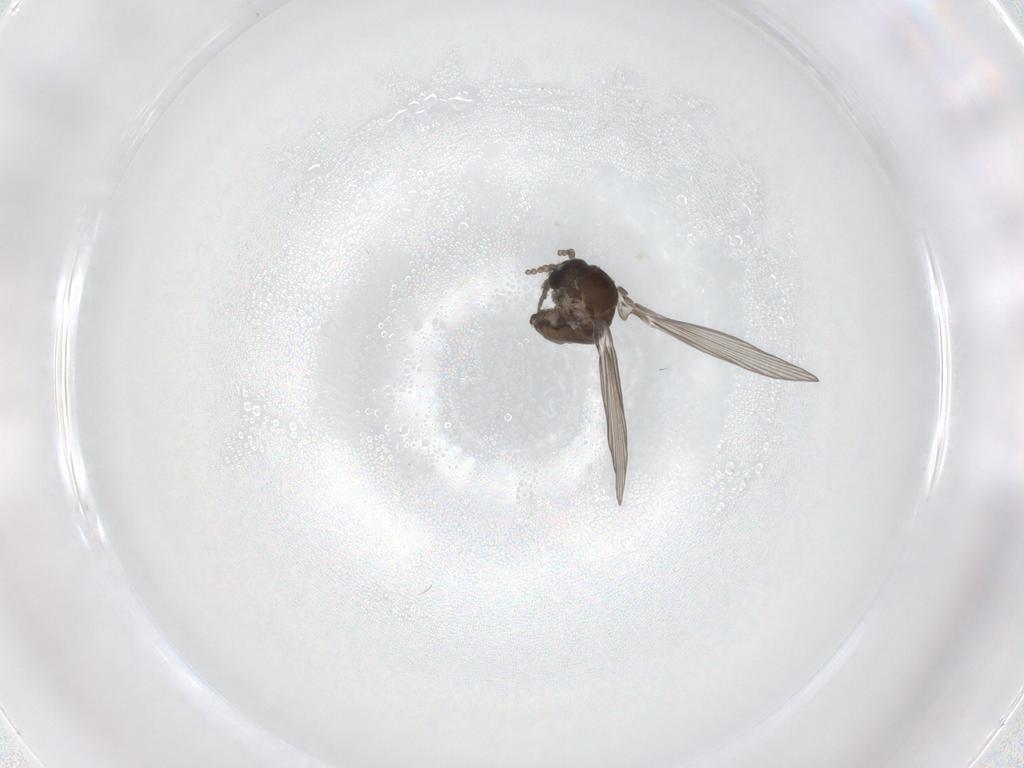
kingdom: Animalia
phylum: Arthropoda
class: Insecta
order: Diptera
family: Psychodidae
